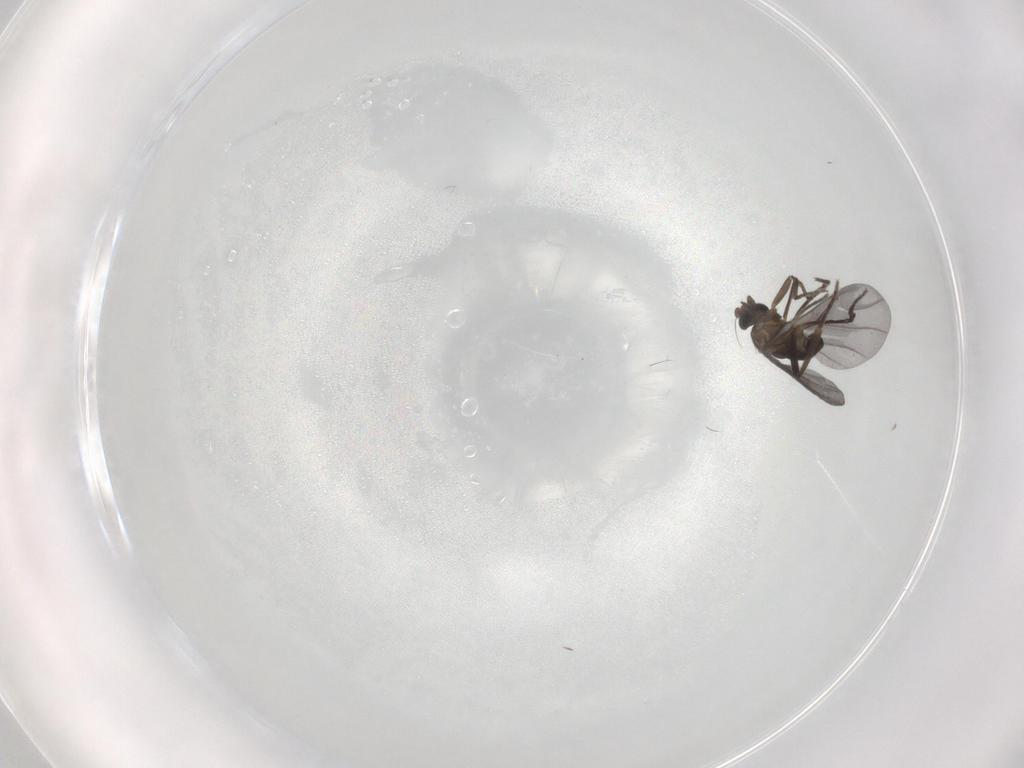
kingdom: Animalia
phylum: Arthropoda
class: Insecta
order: Diptera
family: Phoridae
